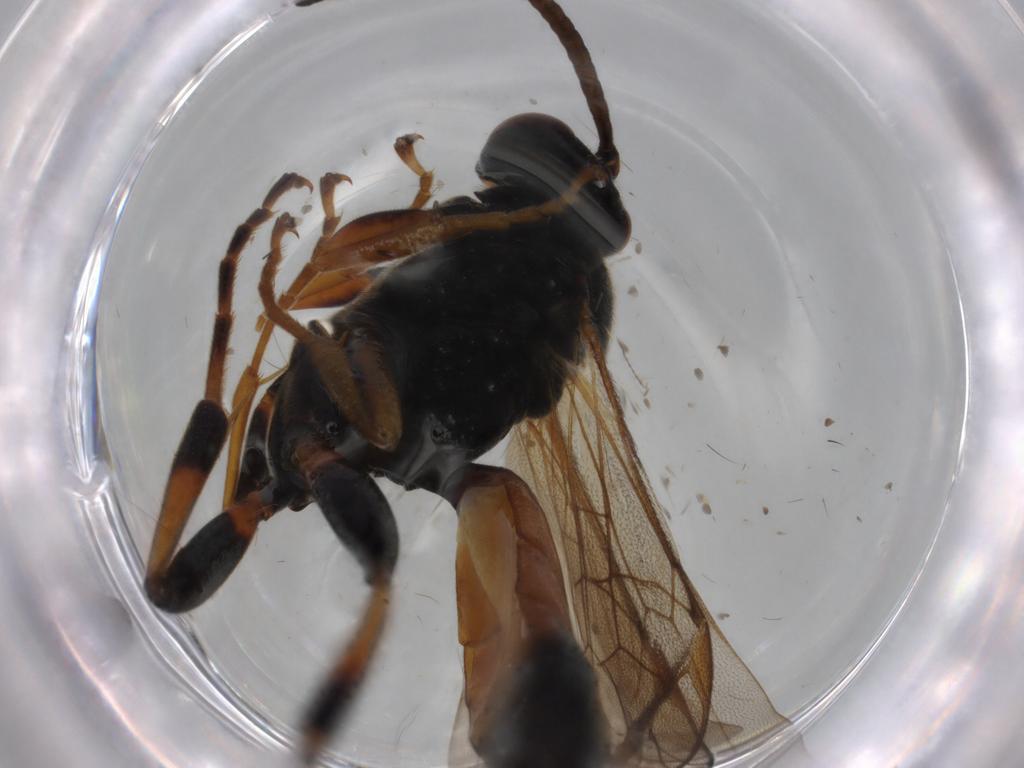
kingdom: Animalia
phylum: Arthropoda
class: Insecta
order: Hymenoptera
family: Ichneumonidae
